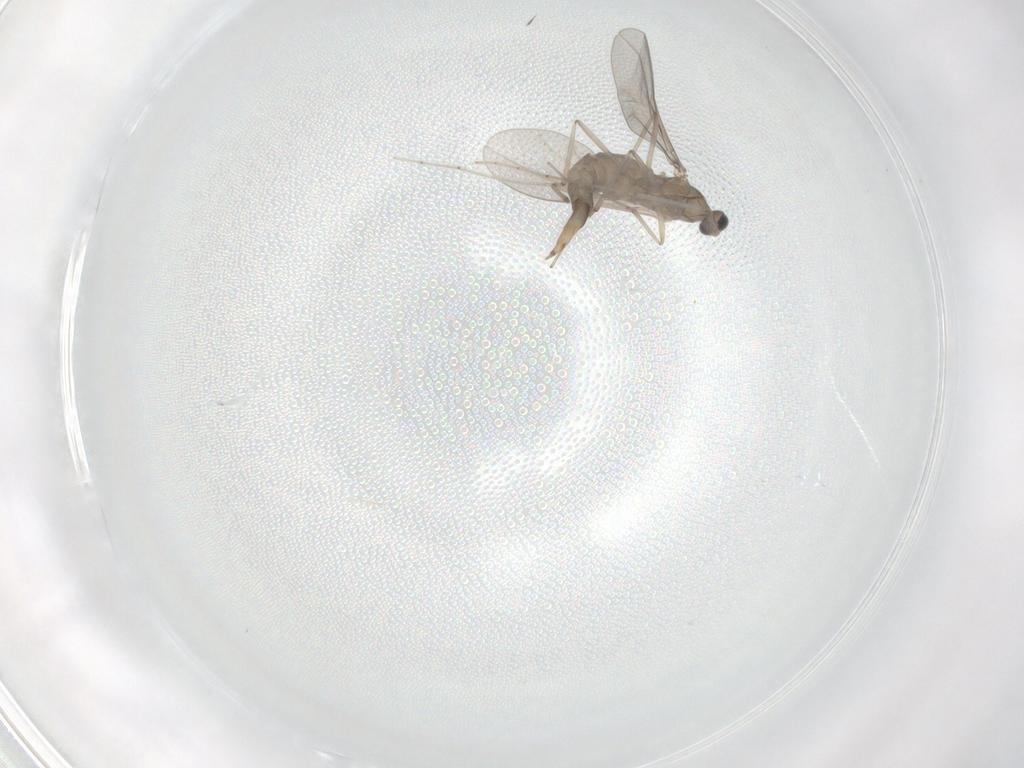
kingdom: Animalia
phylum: Arthropoda
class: Insecta
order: Diptera
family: Cecidomyiidae
